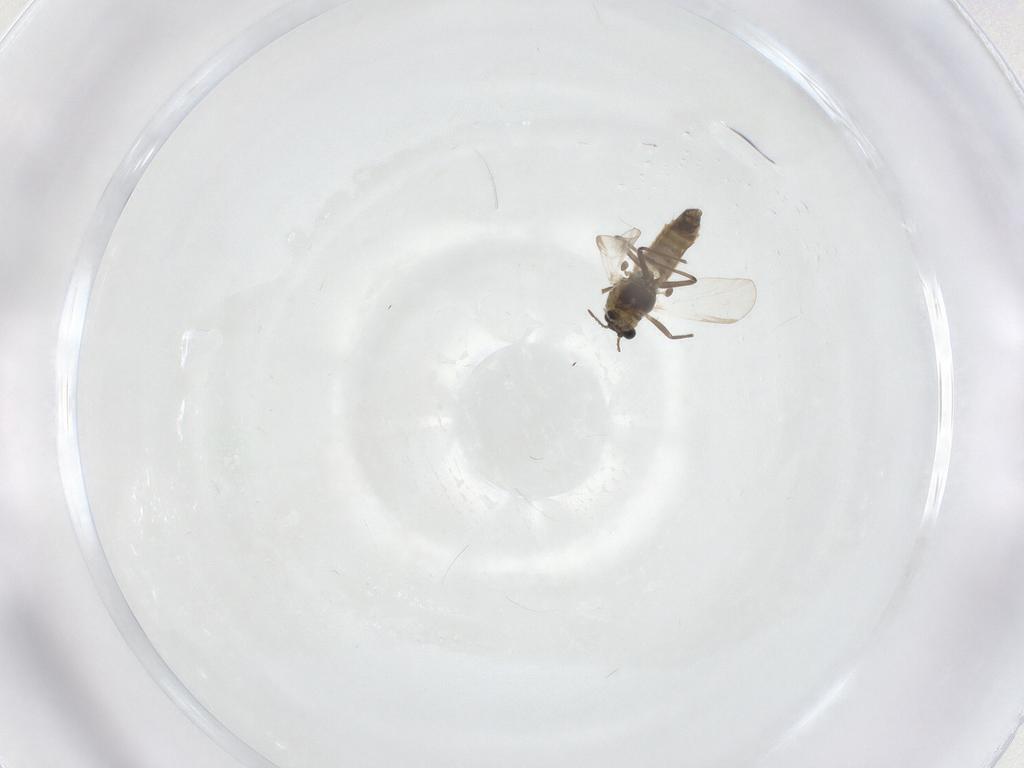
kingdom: Animalia
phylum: Arthropoda
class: Insecta
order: Diptera
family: Chironomidae
